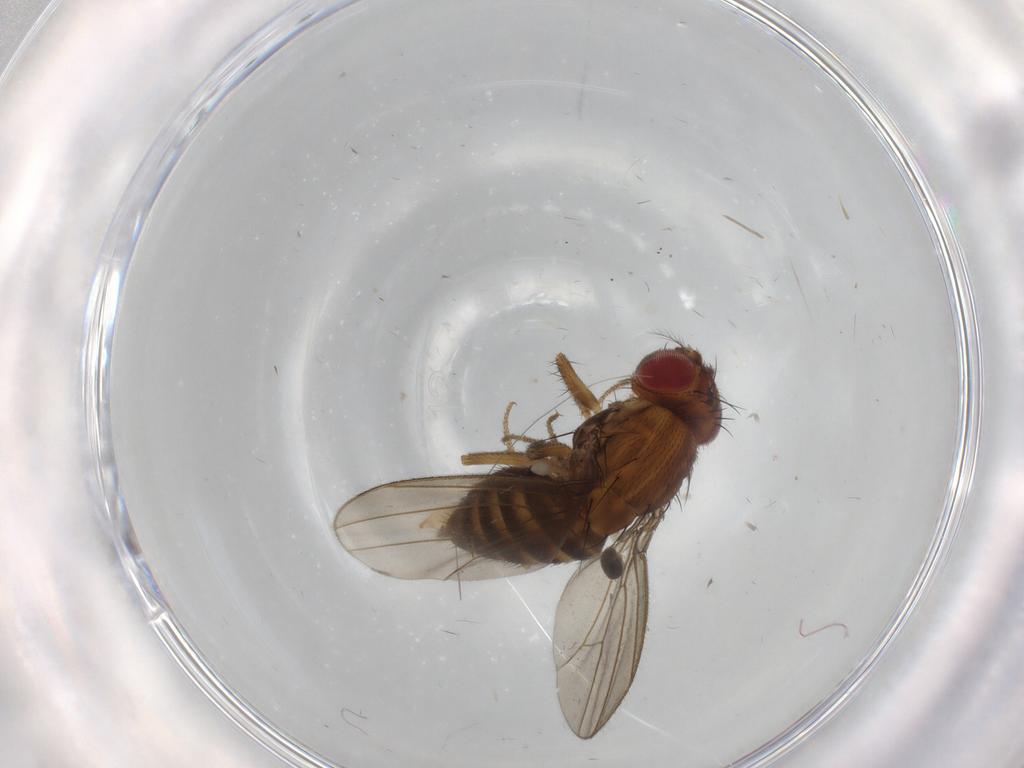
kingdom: Animalia
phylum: Arthropoda
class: Insecta
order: Diptera
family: Drosophilidae
